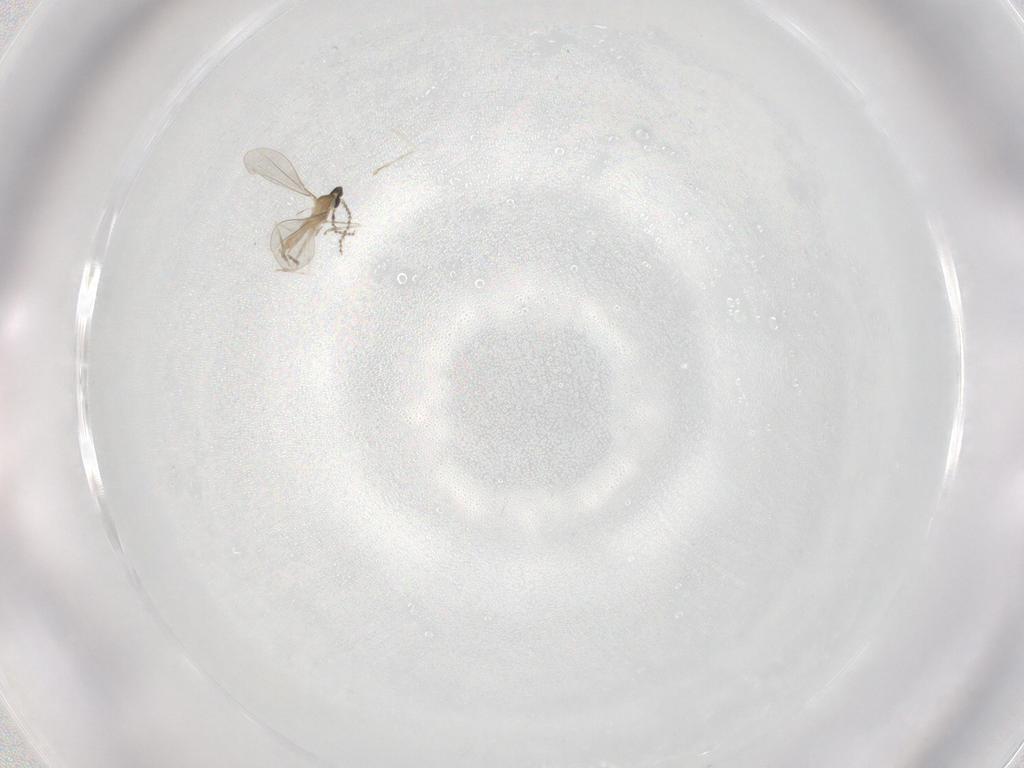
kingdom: Animalia
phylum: Arthropoda
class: Insecta
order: Diptera
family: Cecidomyiidae
